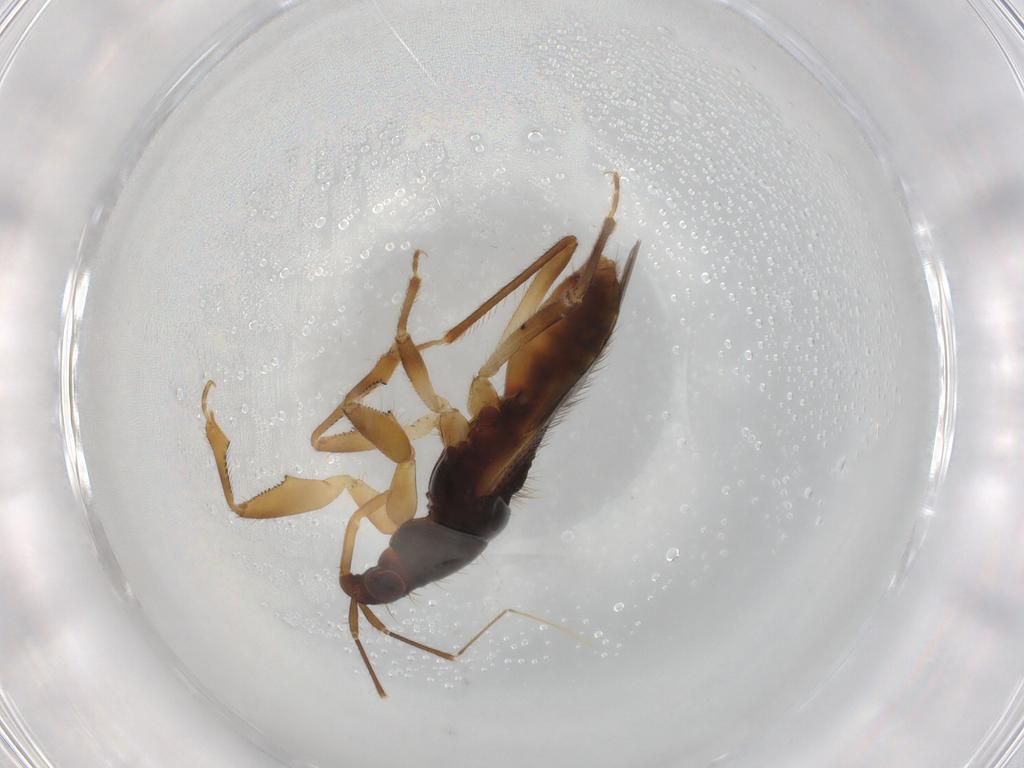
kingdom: Animalia
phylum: Arthropoda
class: Insecta
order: Hemiptera
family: Nabidae
